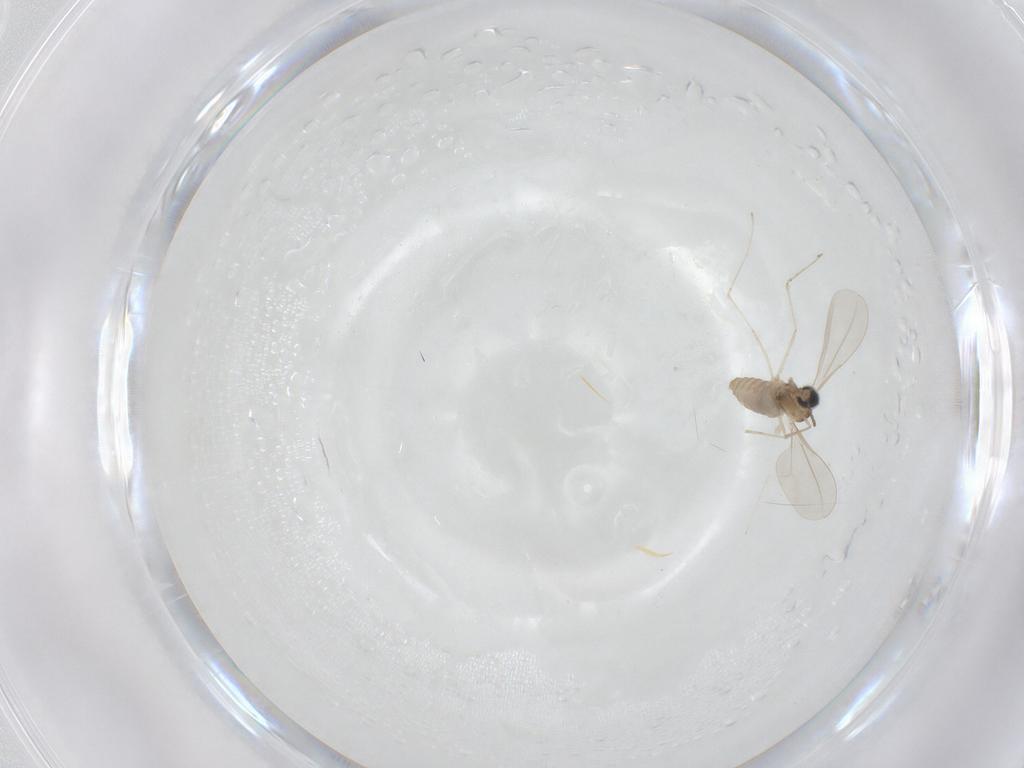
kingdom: Animalia
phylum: Arthropoda
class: Insecta
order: Diptera
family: Cecidomyiidae
